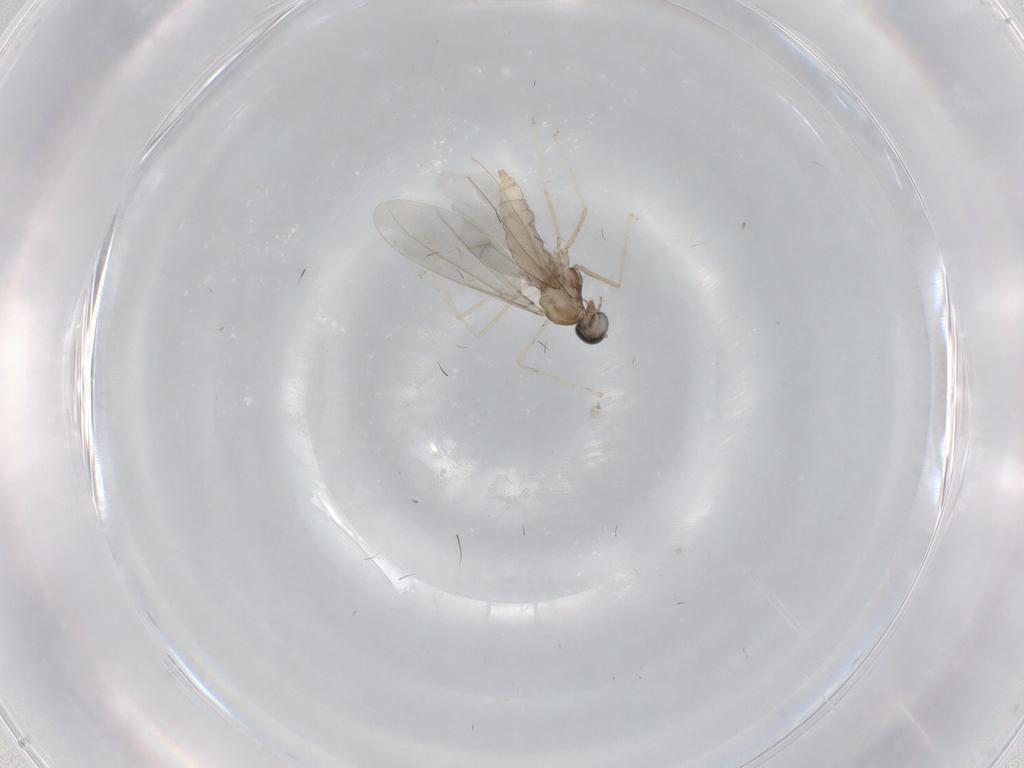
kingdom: Animalia
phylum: Arthropoda
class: Insecta
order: Diptera
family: Cecidomyiidae
